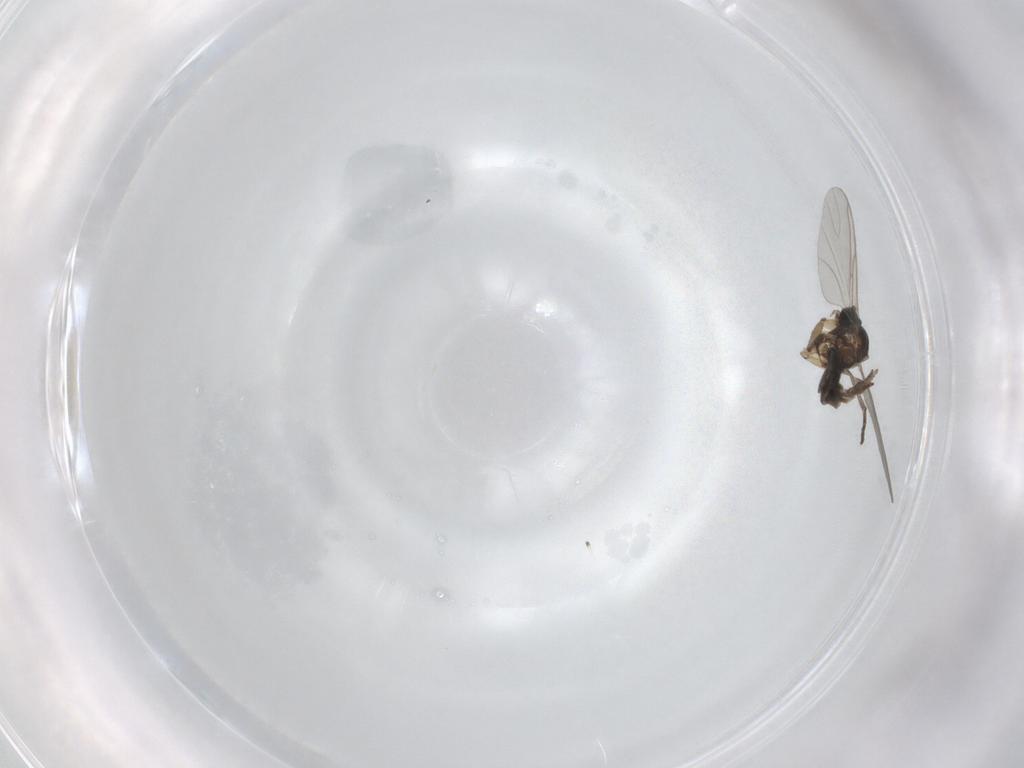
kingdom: Animalia
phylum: Arthropoda
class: Insecta
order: Diptera
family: Sciaridae
